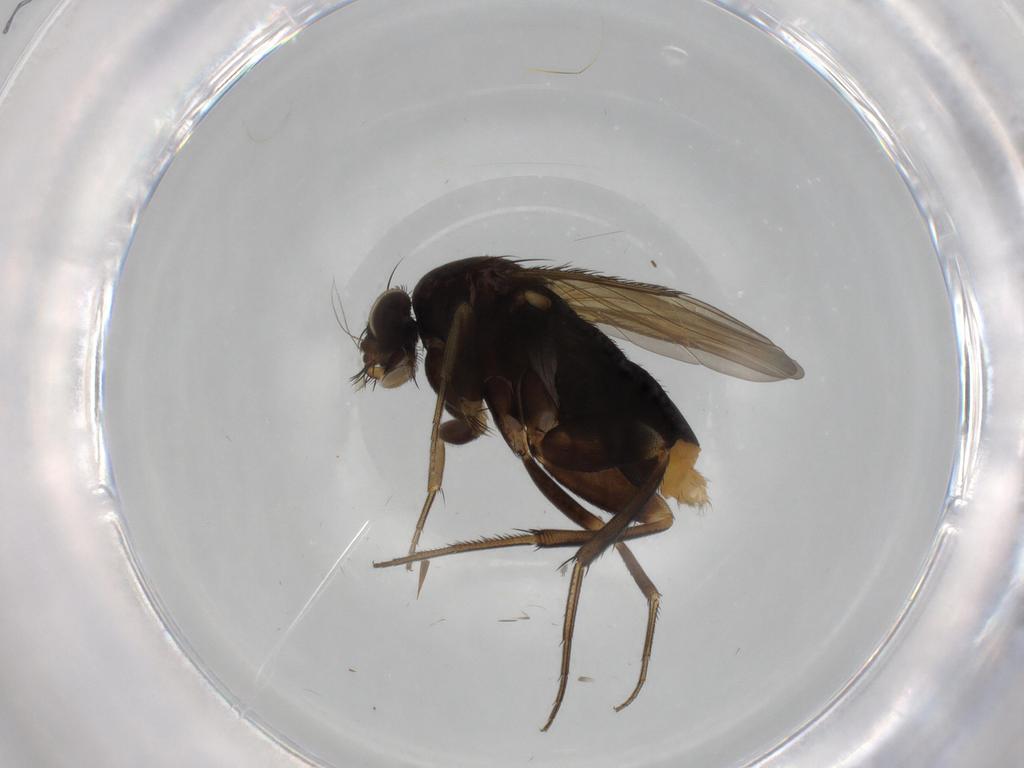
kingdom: Animalia
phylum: Arthropoda
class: Insecta
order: Diptera
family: Phoridae
